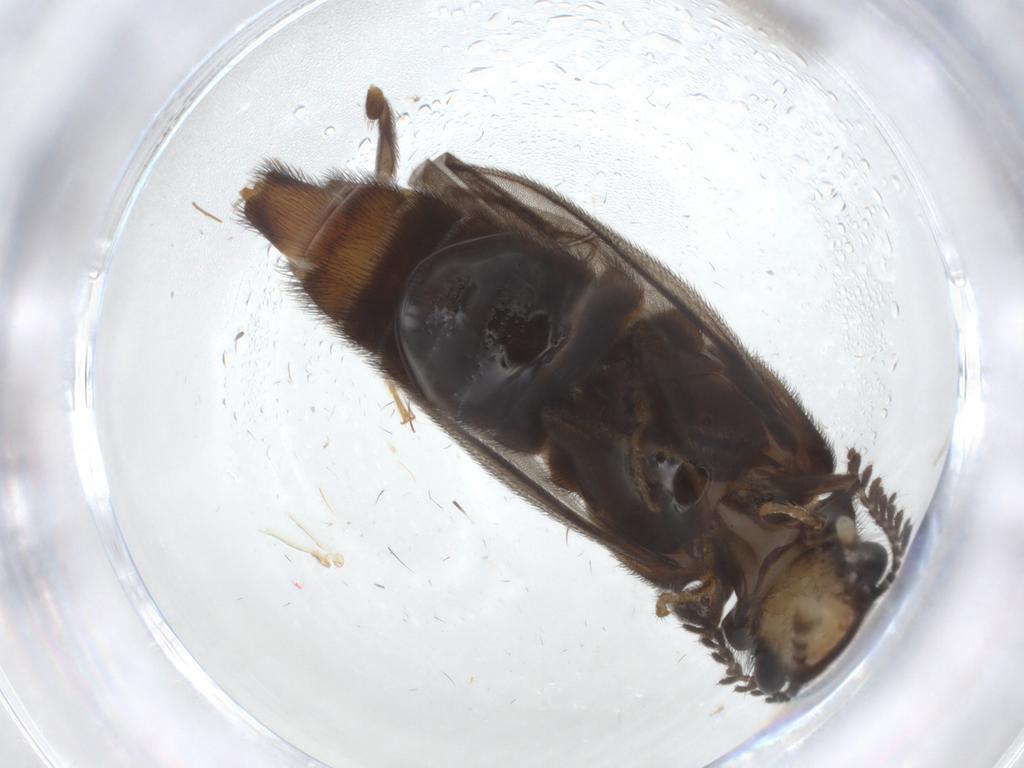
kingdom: Animalia
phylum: Arthropoda
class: Insecta
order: Coleoptera
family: Phengodidae
